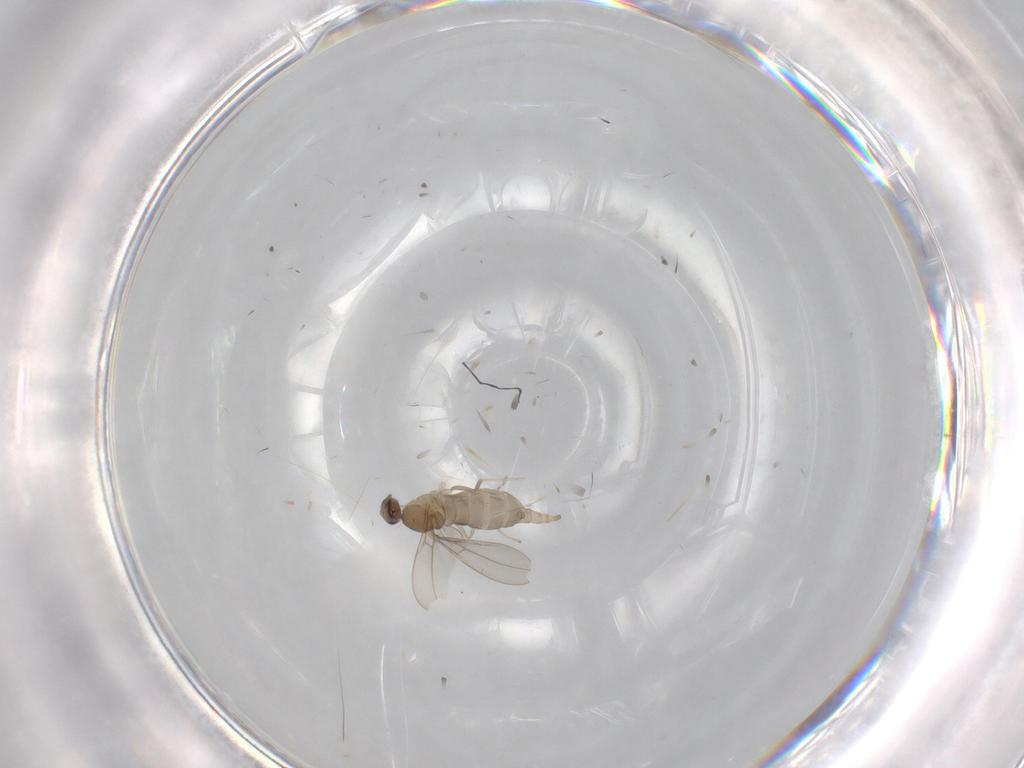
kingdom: Animalia
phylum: Arthropoda
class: Insecta
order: Diptera
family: Cecidomyiidae
